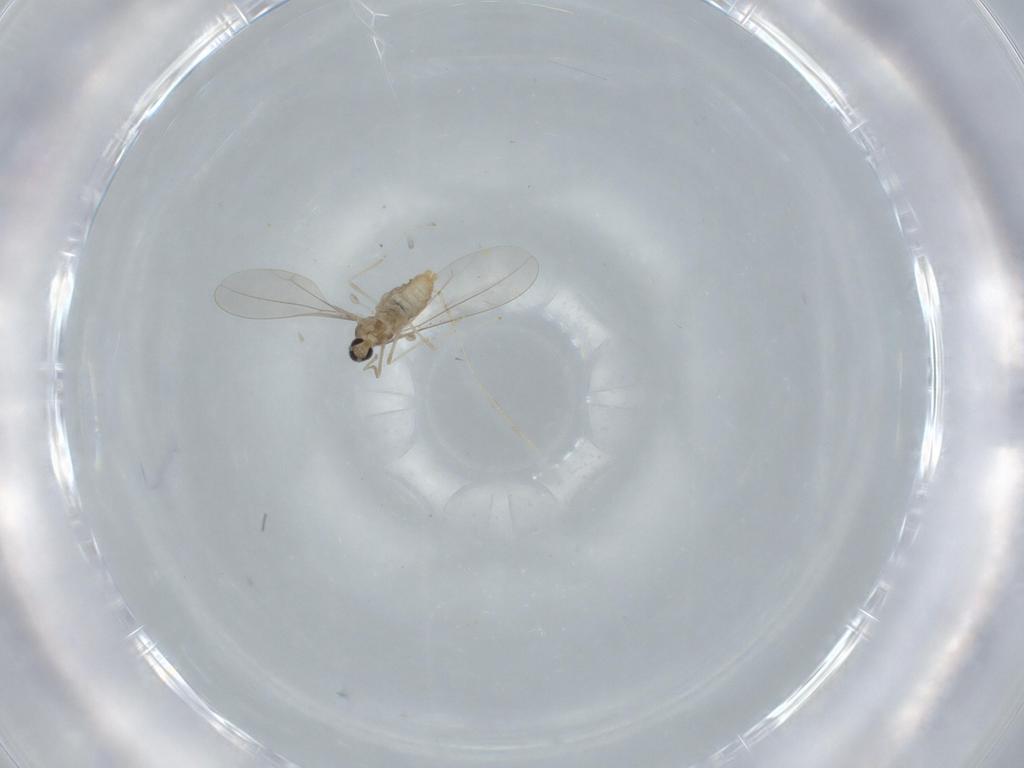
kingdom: Animalia
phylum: Arthropoda
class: Insecta
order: Diptera
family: Cecidomyiidae
